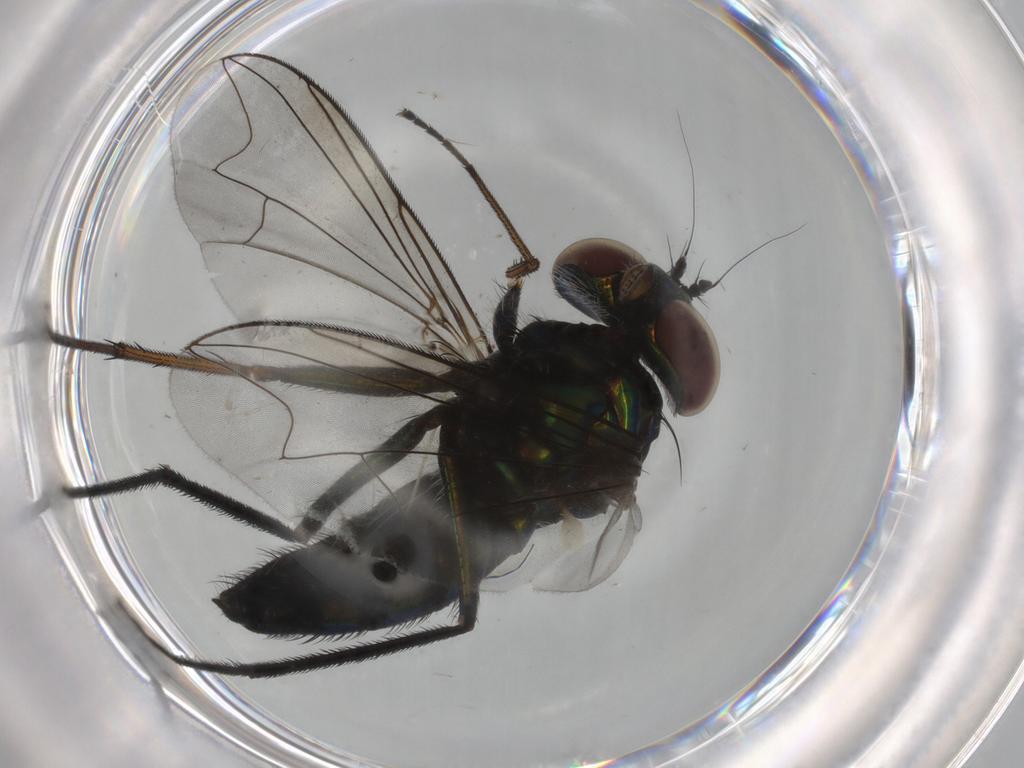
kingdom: Animalia
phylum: Arthropoda
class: Insecta
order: Diptera
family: Dolichopodidae
